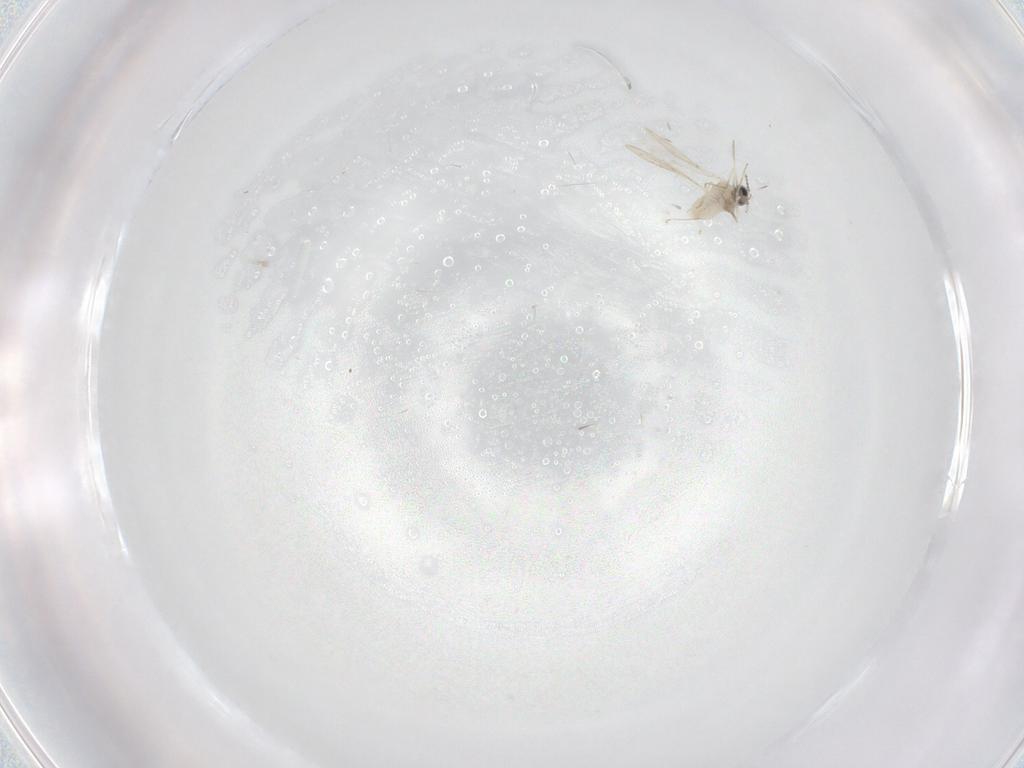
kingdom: Animalia
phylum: Arthropoda
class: Insecta
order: Diptera
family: Cecidomyiidae
